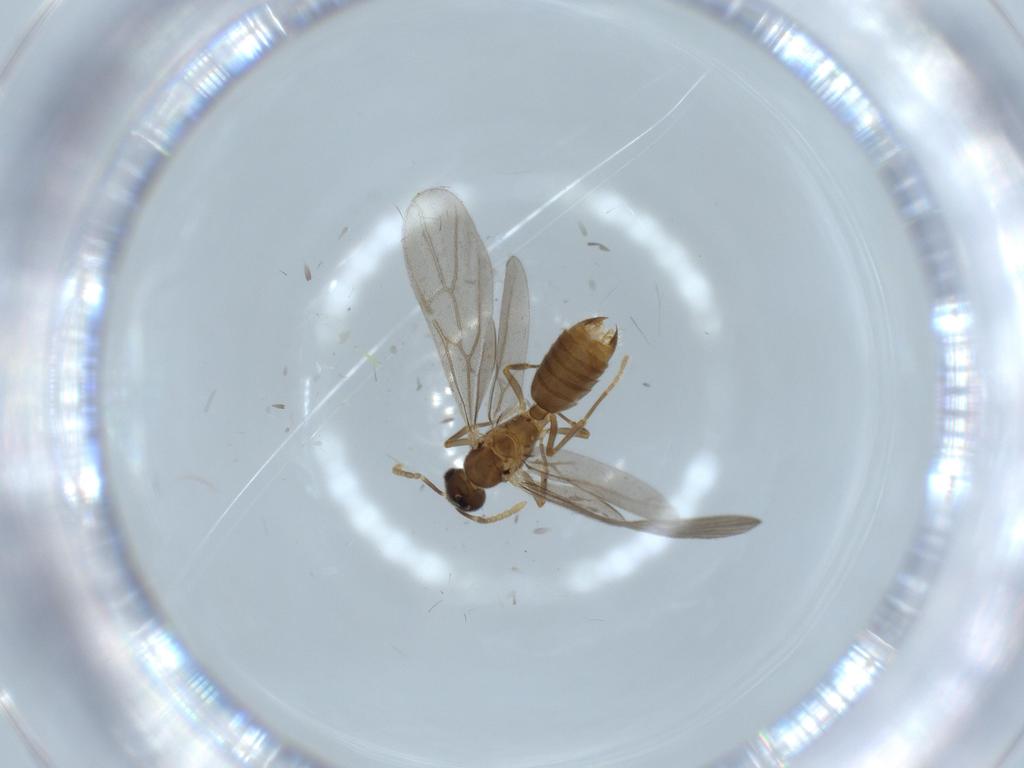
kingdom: Animalia
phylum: Arthropoda
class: Insecta
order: Hymenoptera
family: Formicidae
